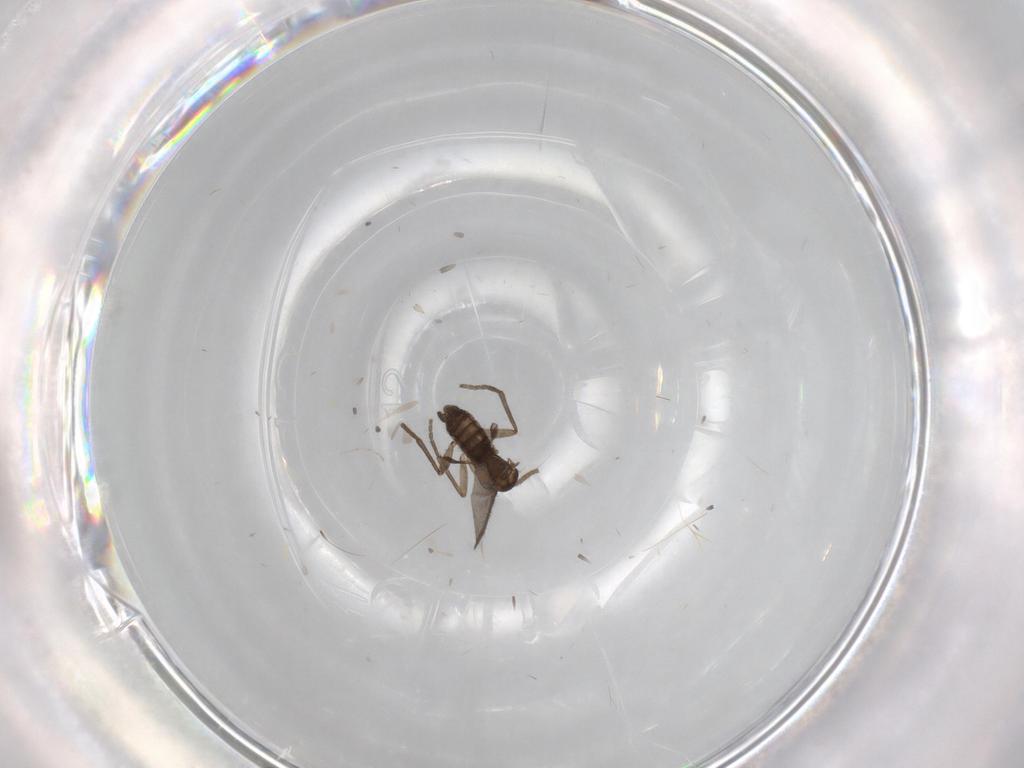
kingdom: Animalia
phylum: Arthropoda
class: Insecta
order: Diptera
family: Sciaridae
